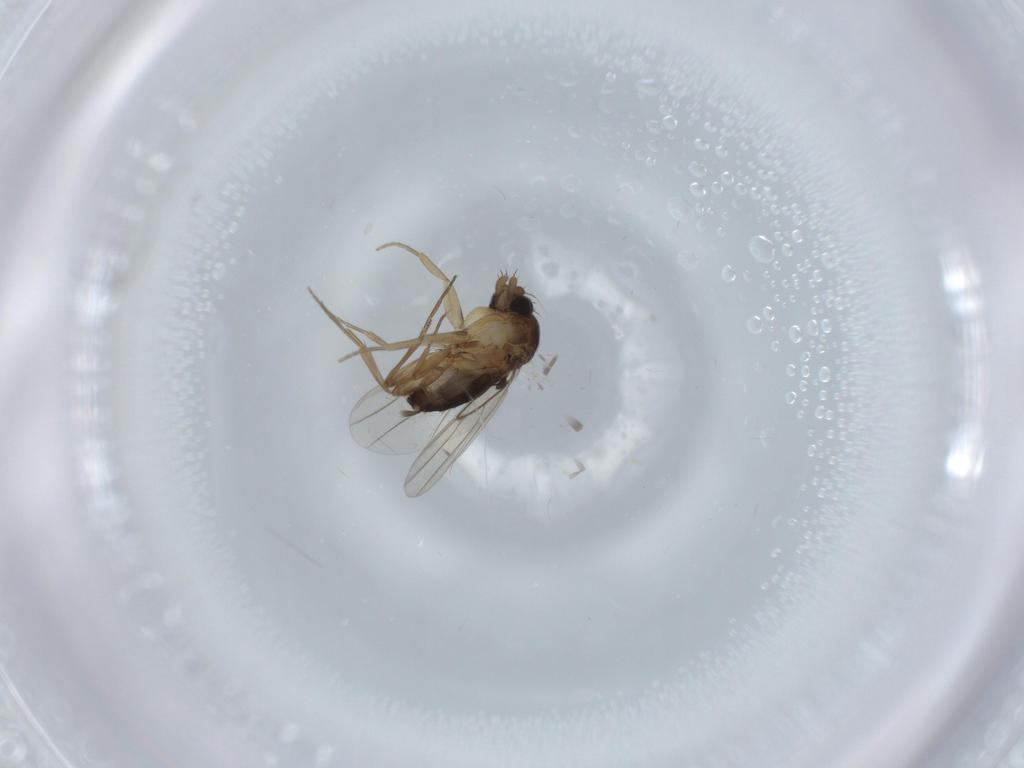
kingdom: Animalia
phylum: Arthropoda
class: Insecta
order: Diptera
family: Phoridae
